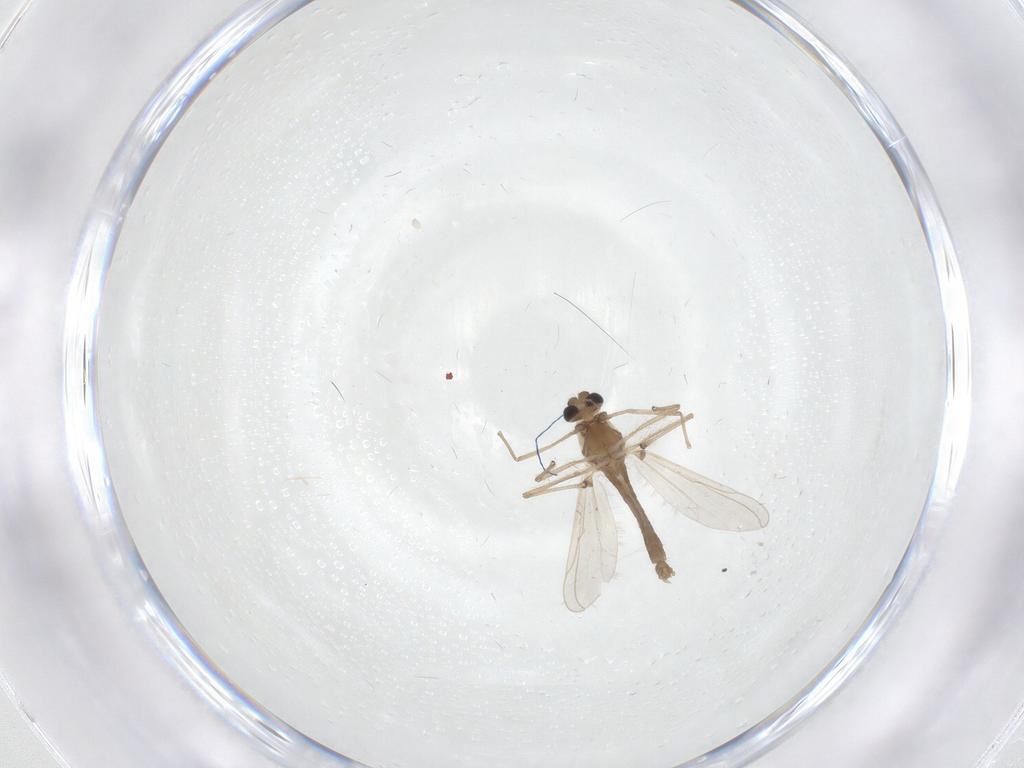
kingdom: Animalia
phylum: Arthropoda
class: Insecta
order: Diptera
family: Chironomidae
